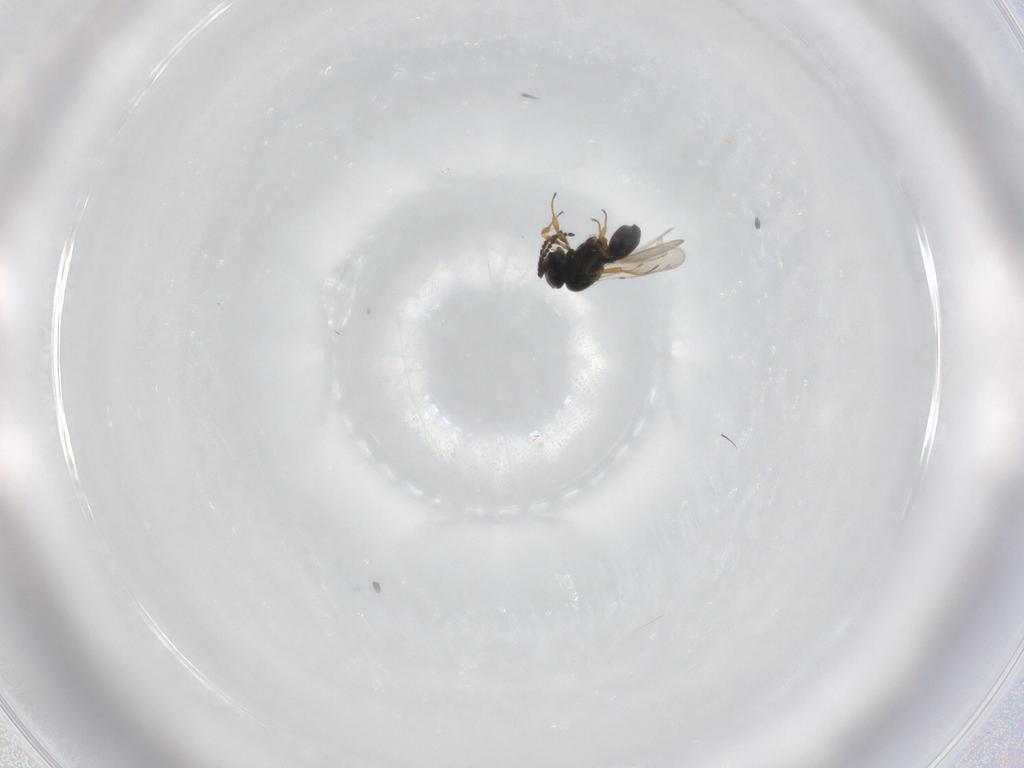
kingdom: Animalia
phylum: Arthropoda
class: Insecta
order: Hymenoptera
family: Scelionidae
